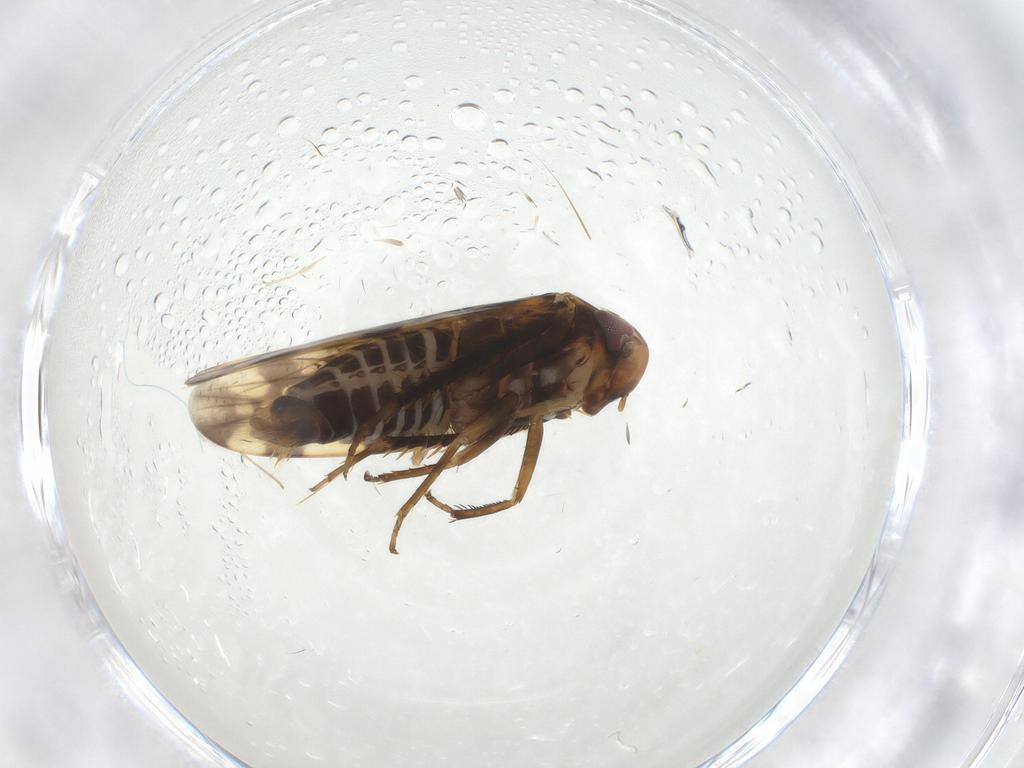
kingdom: Animalia
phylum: Arthropoda
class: Insecta
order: Hemiptera
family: Cicadellidae
